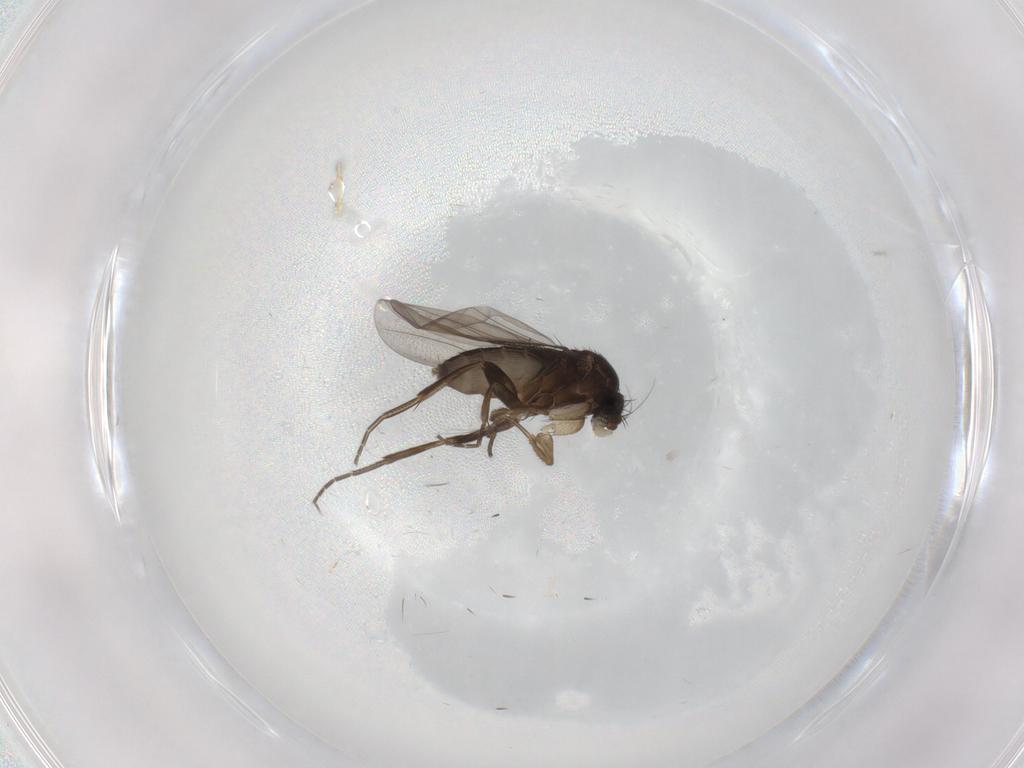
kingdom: Animalia
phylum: Arthropoda
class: Insecta
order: Diptera
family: Phoridae
